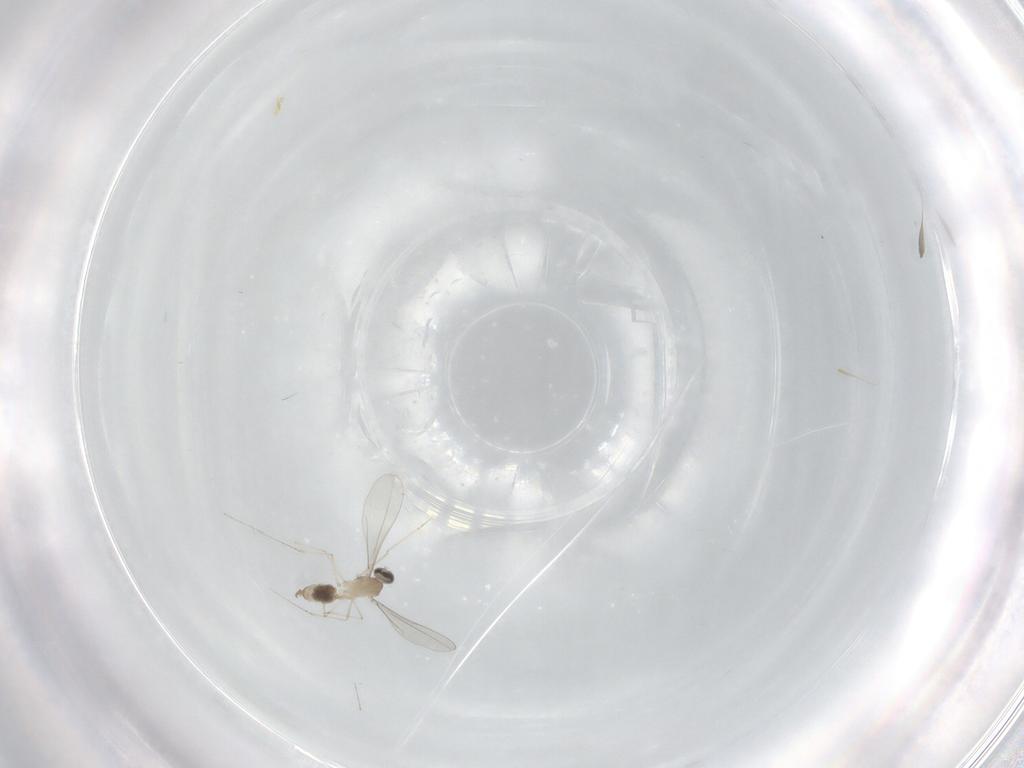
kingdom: Animalia
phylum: Arthropoda
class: Insecta
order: Diptera
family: Cecidomyiidae
